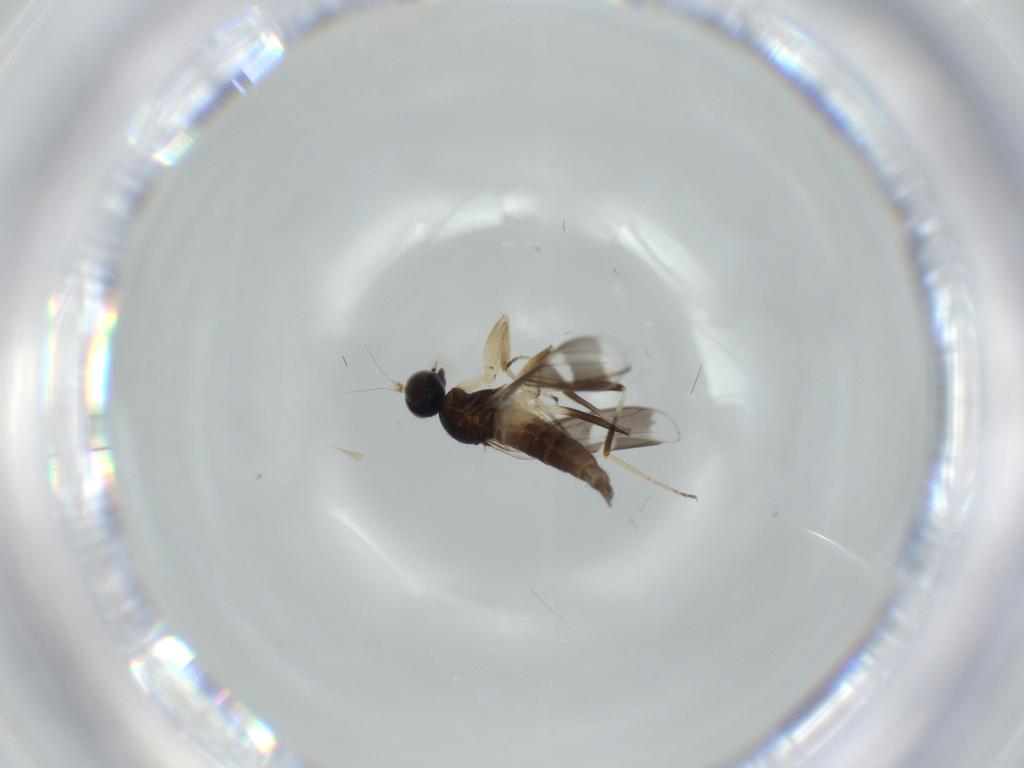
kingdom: Animalia
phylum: Arthropoda
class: Insecta
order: Diptera
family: Hybotidae
